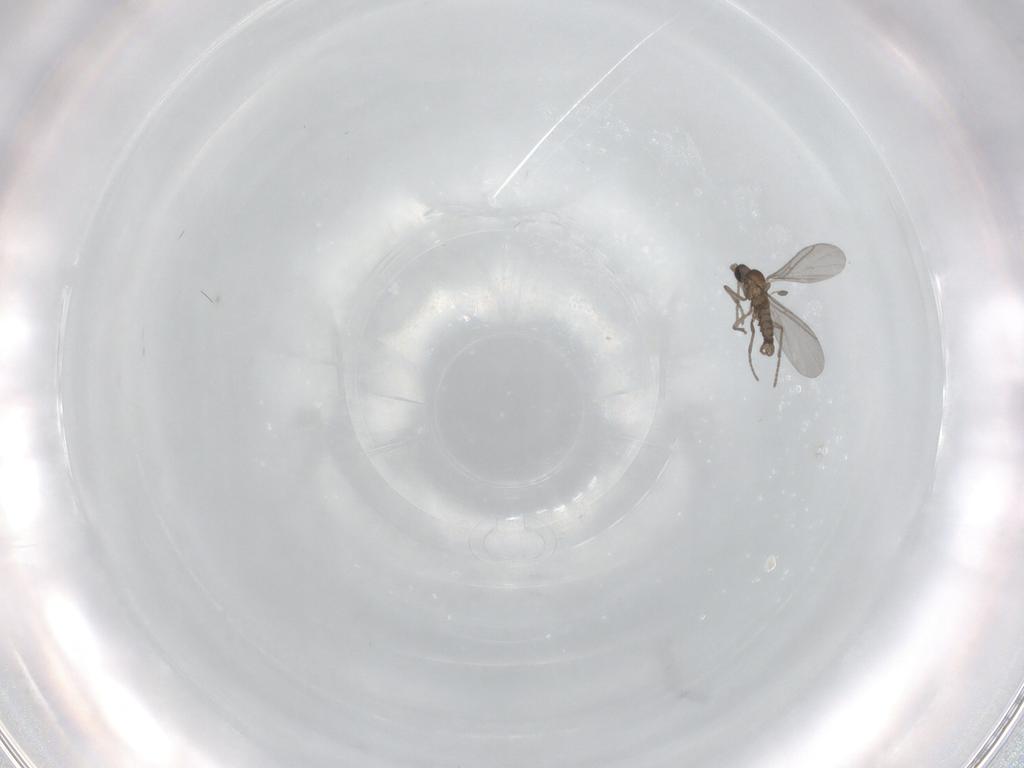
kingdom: Animalia
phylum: Arthropoda
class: Insecta
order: Diptera
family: Sciaridae
